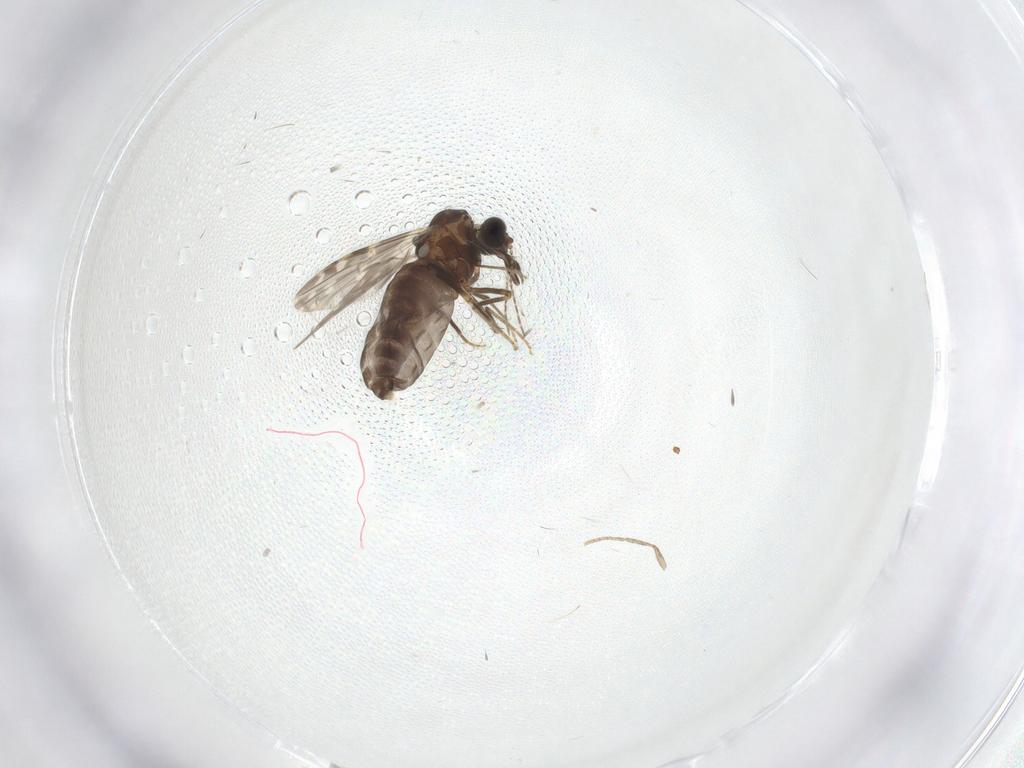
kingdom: Animalia
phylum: Arthropoda
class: Insecta
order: Diptera
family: Ceratopogonidae
